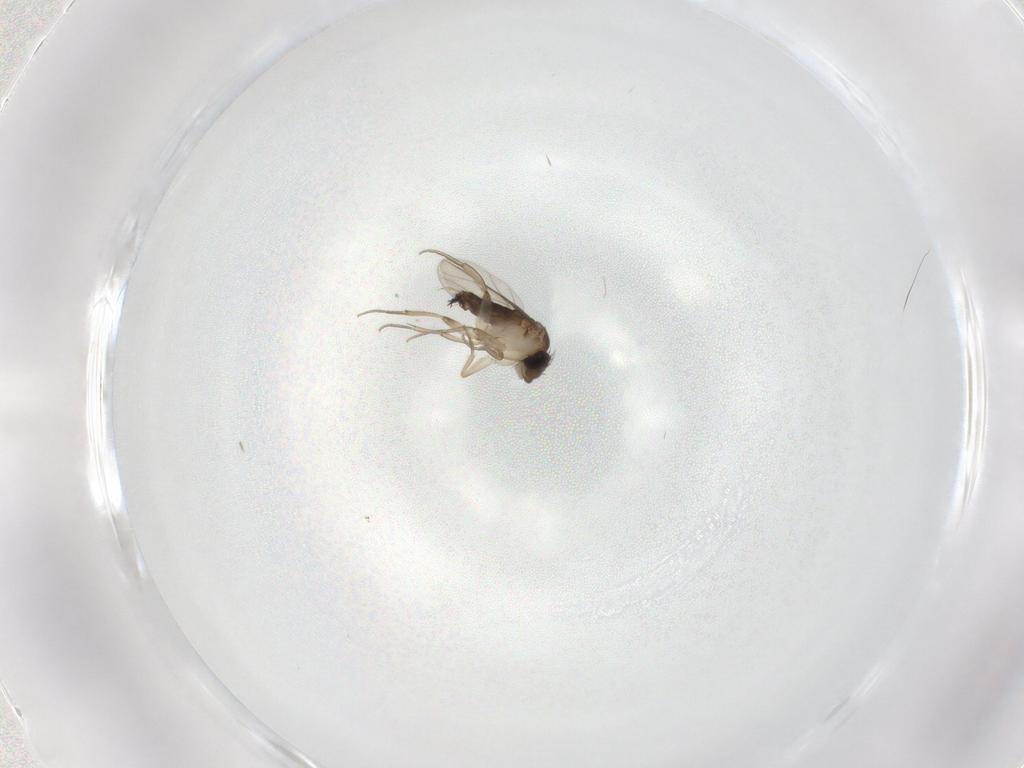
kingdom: Animalia
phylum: Arthropoda
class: Insecta
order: Diptera
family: Phoridae
